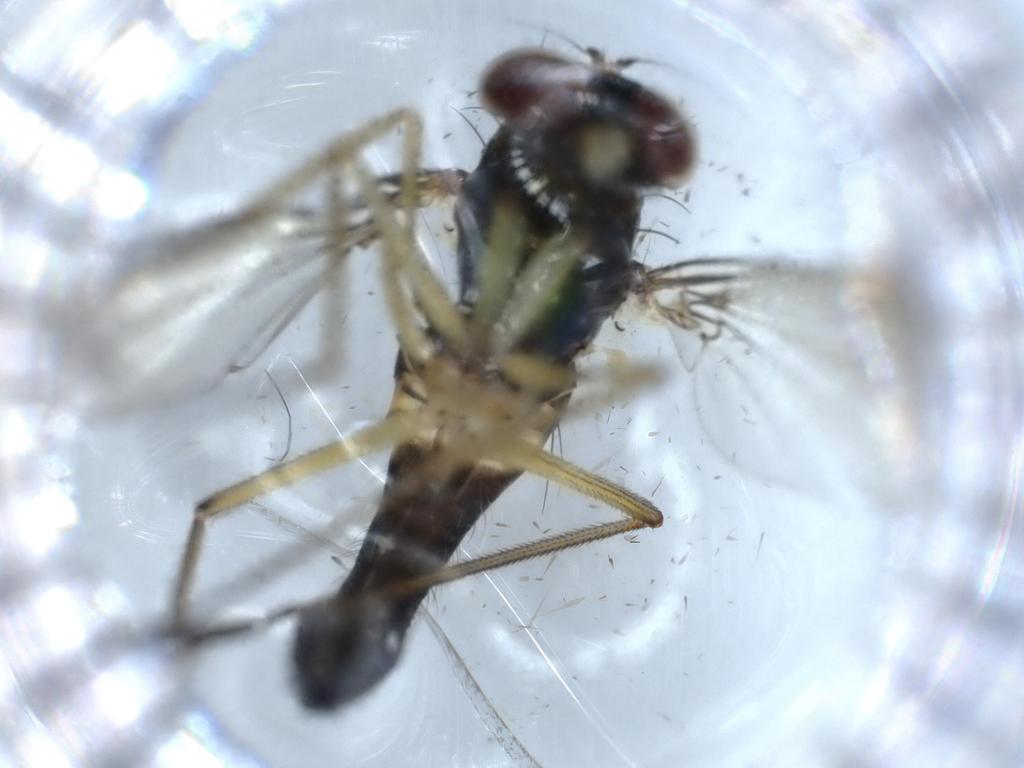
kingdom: Animalia
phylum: Arthropoda
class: Insecta
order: Diptera
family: Dolichopodidae
